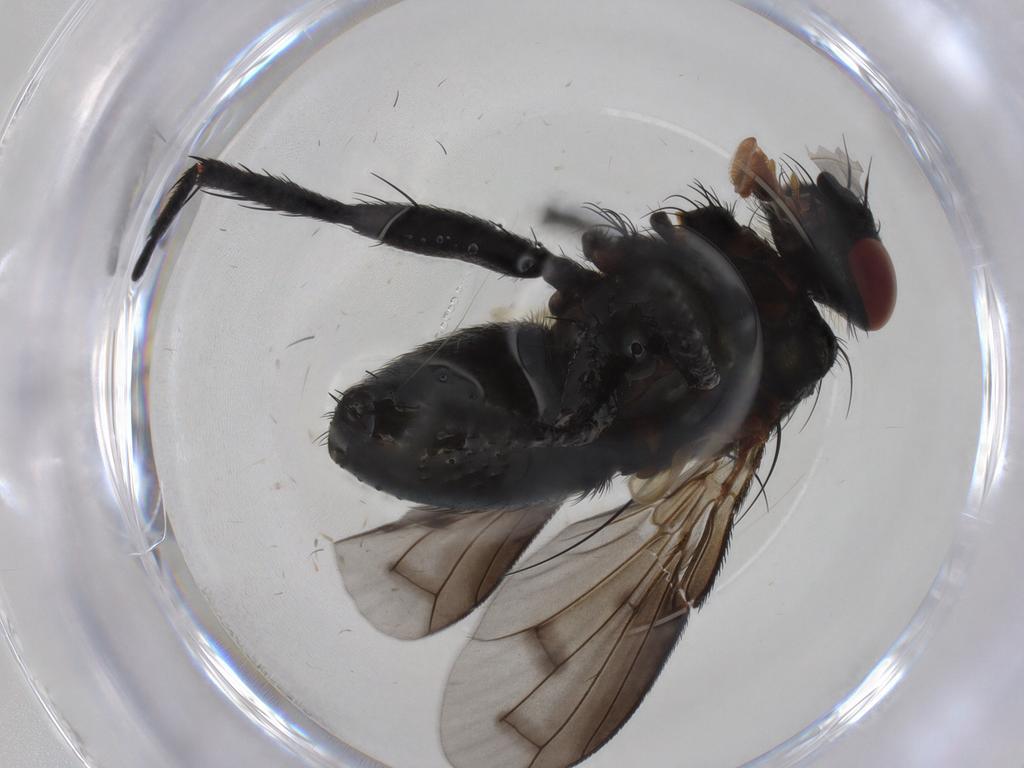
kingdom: Animalia
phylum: Arthropoda
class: Insecta
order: Diptera
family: Tachinidae
